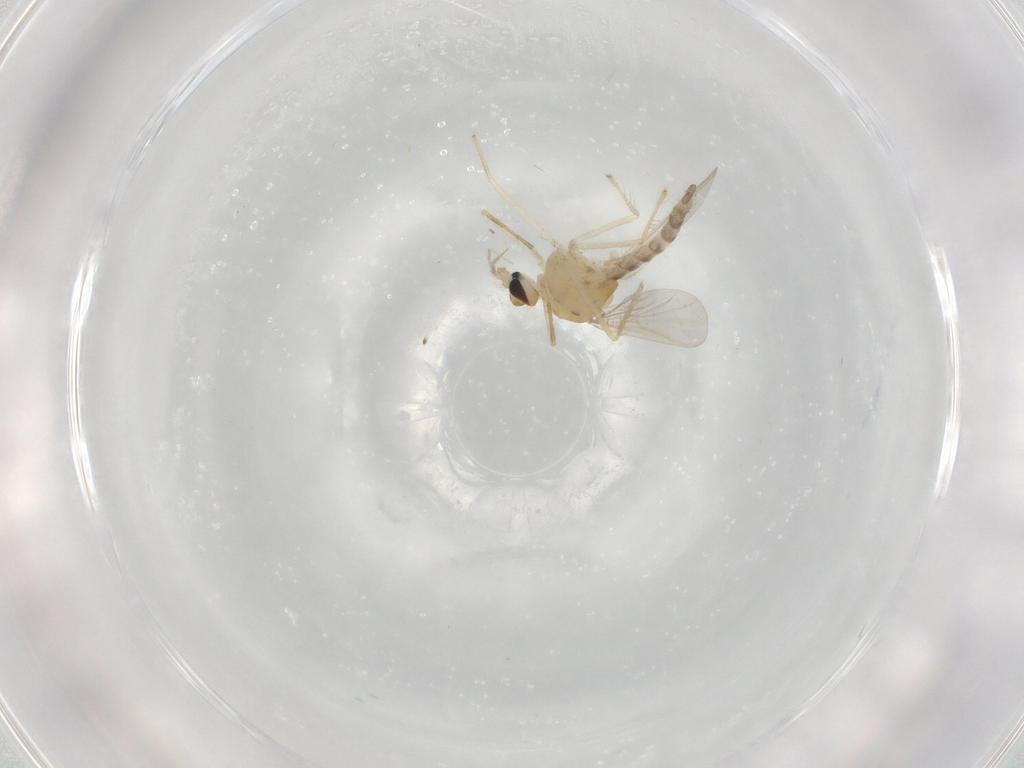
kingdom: Animalia
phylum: Arthropoda
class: Insecta
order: Diptera
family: Chironomidae
